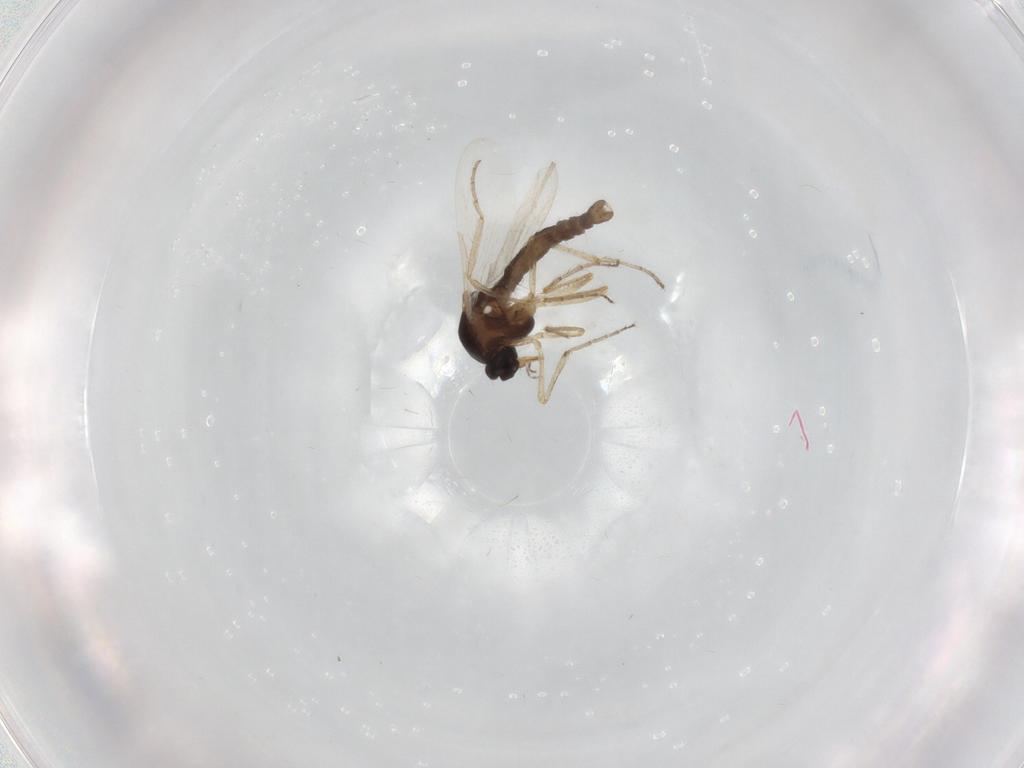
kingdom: Animalia
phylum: Arthropoda
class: Insecta
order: Diptera
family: Ceratopogonidae
